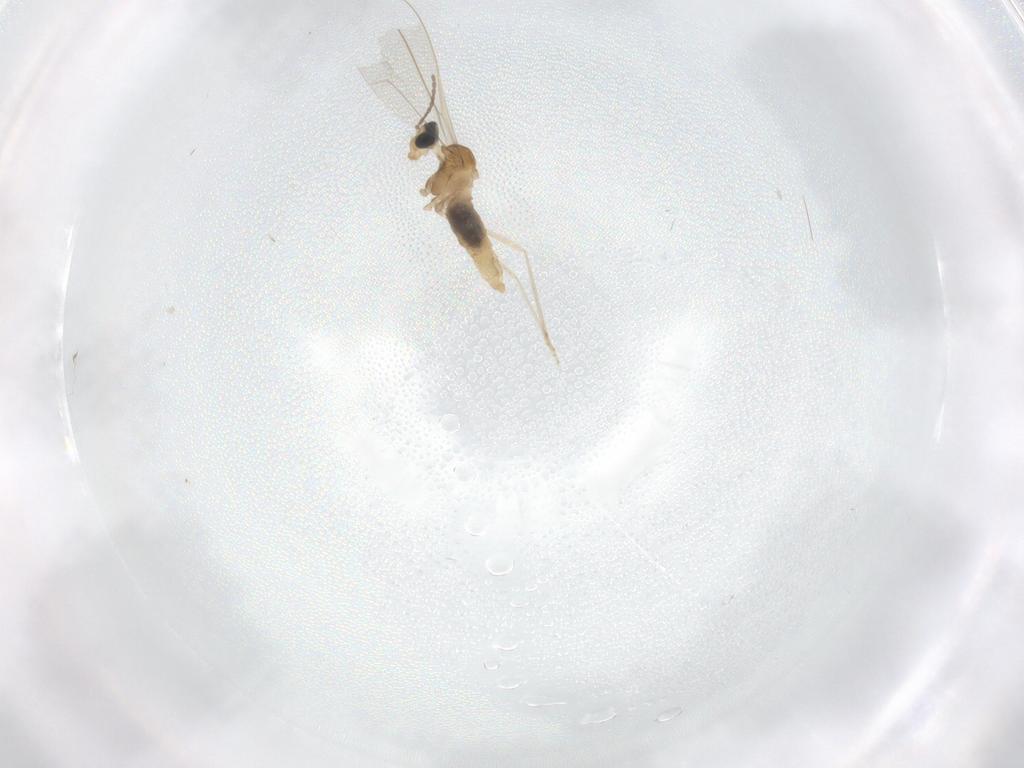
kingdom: Animalia
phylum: Arthropoda
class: Insecta
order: Diptera
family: Cecidomyiidae
